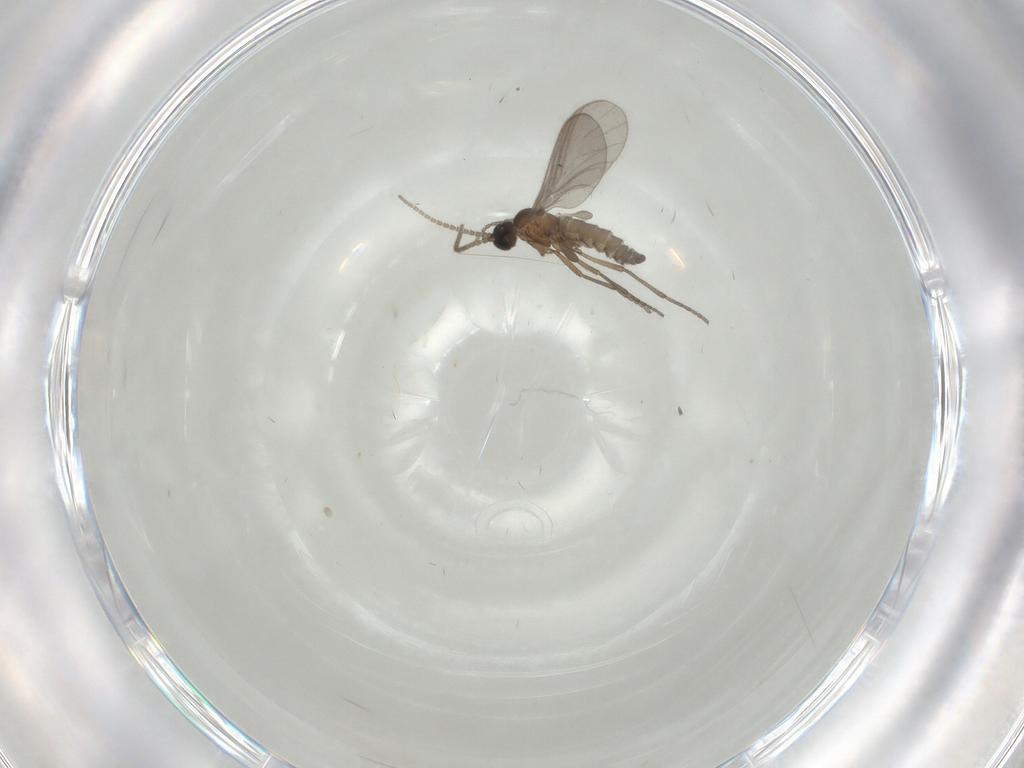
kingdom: Animalia
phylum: Arthropoda
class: Insecta
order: Diptera
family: Sciaridae
